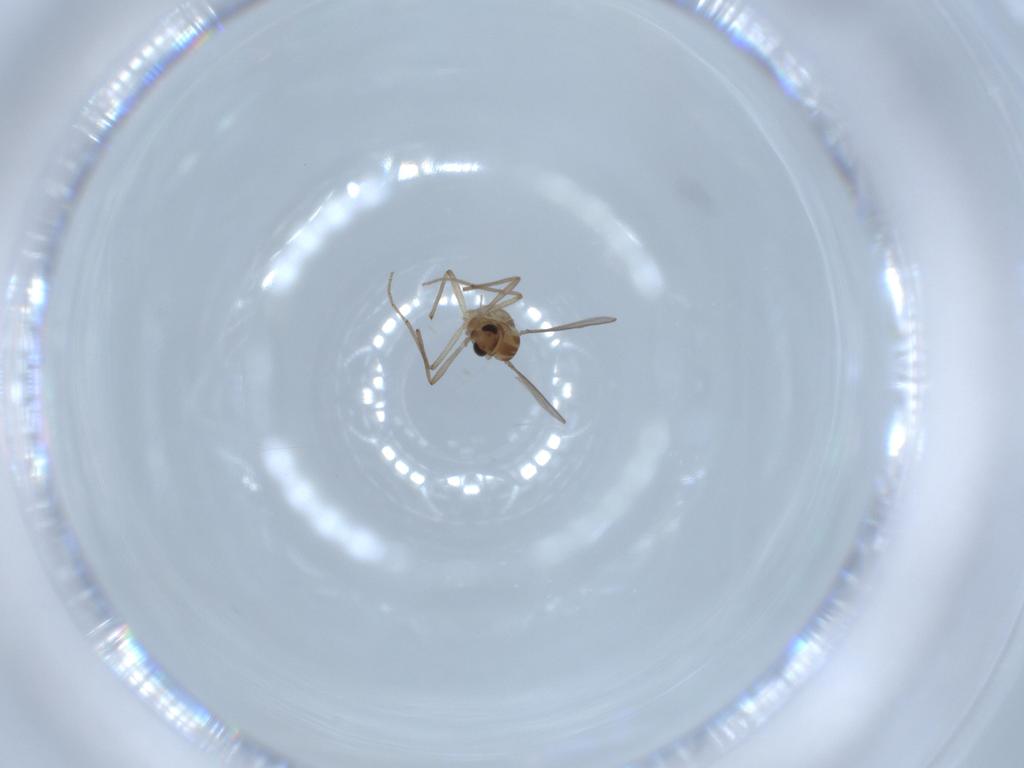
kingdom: Animalia
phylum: Arthropoda
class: Insecta
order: Diptera
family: Chironomidae
